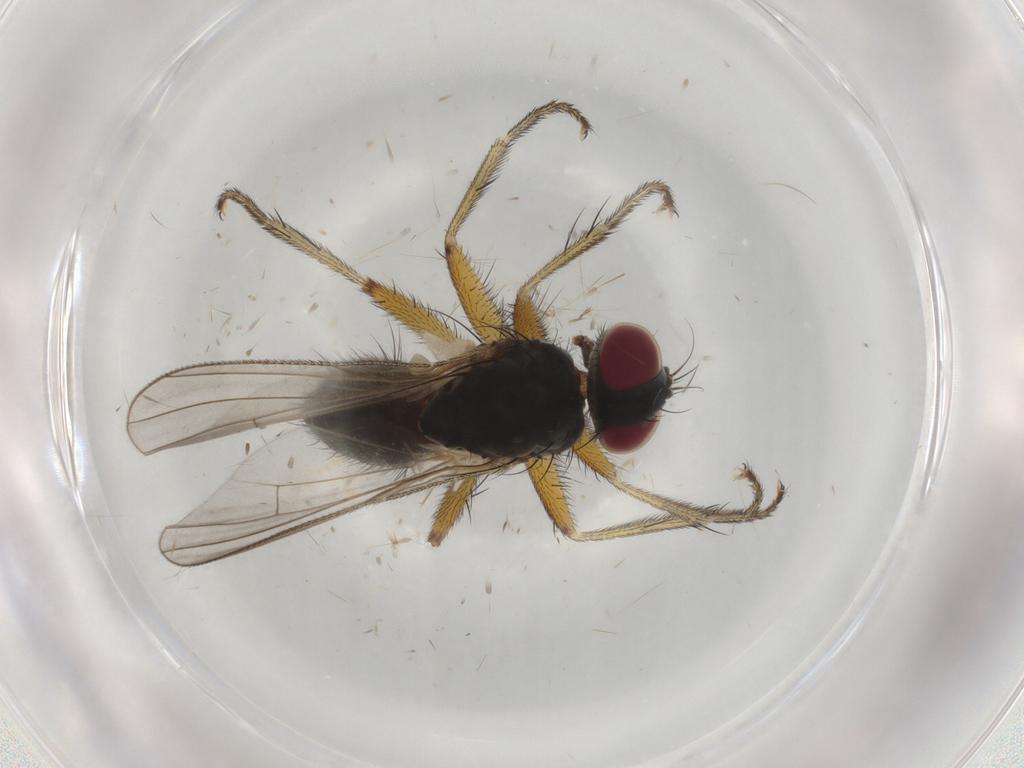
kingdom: Animalia
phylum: Arthropoda
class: Insecta
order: Diptera
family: Muscidae
